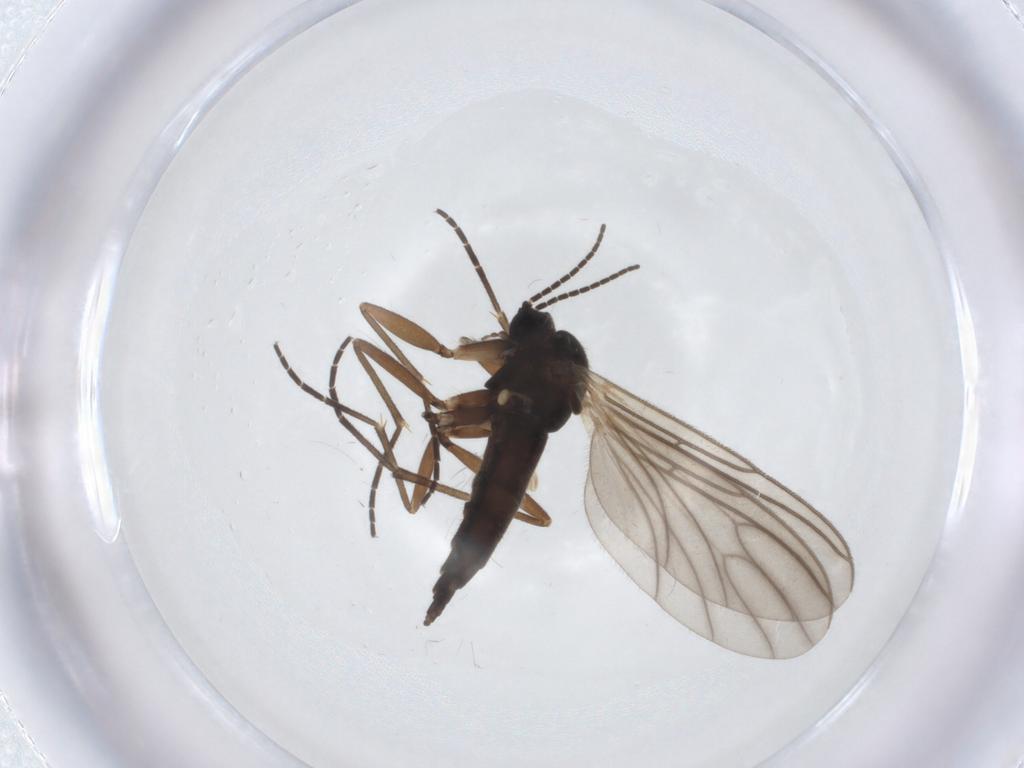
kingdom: Animalia
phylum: Arthropoda
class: Insecta
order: Diptera
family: Sciaridae
